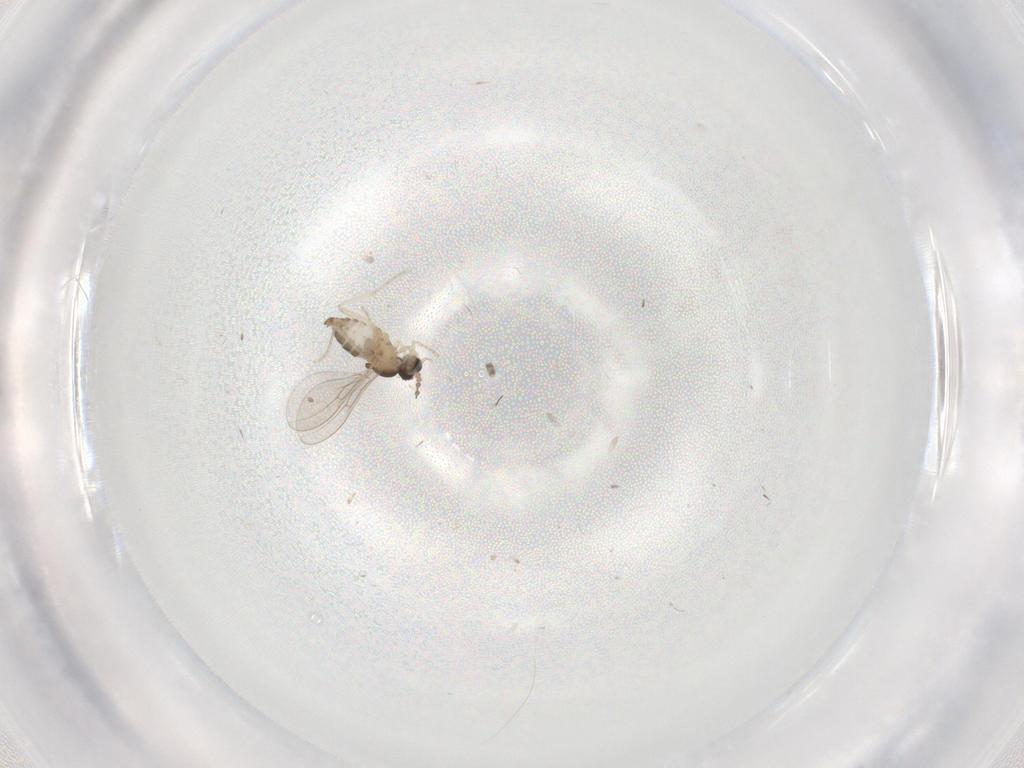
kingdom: Animalia
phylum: Arthropoda
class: Insecta
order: Diptera
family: Cecidomyiidae
